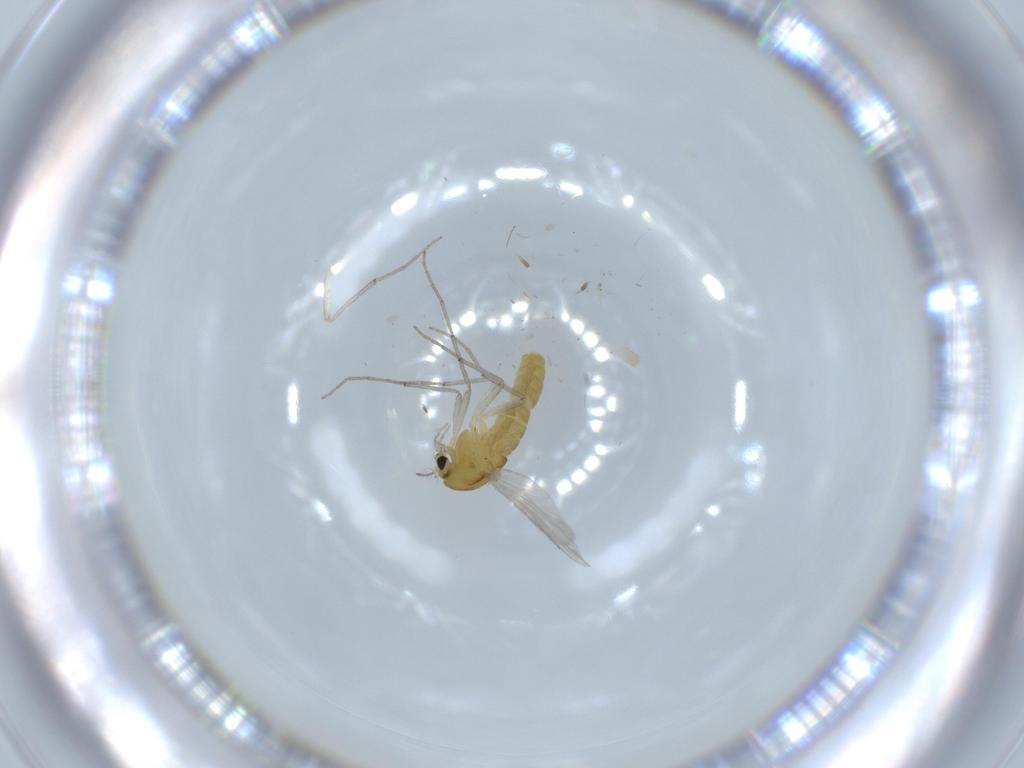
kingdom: Animalia
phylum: Arthropoda
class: Insecta
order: Diptera
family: Chironomidae
